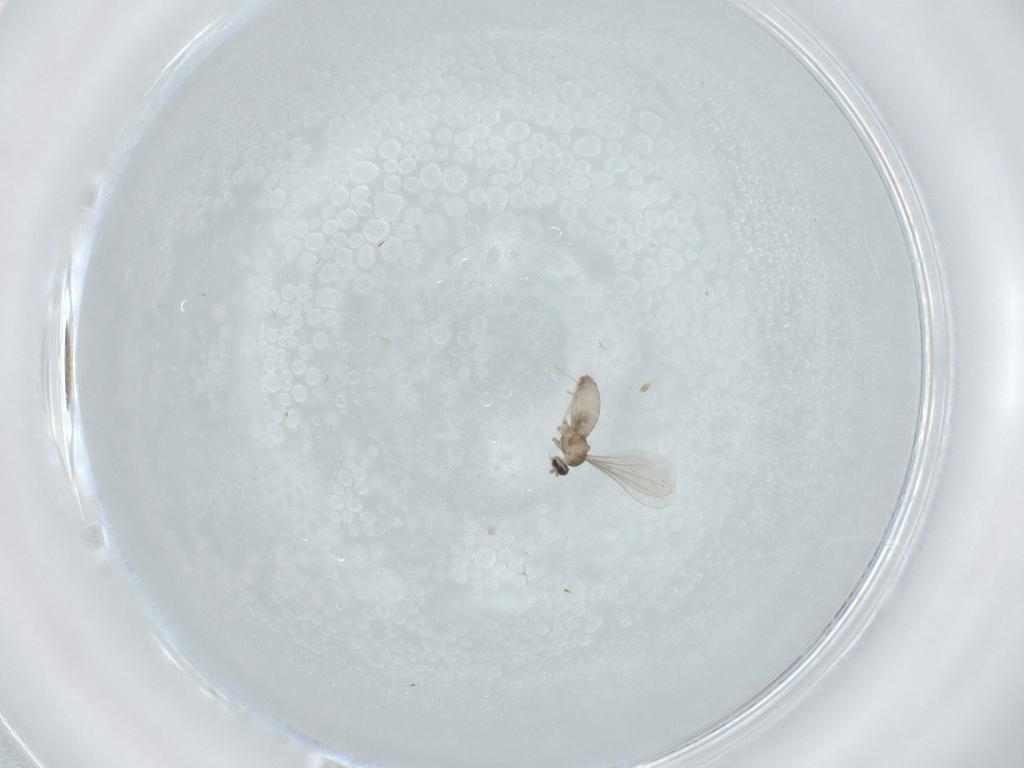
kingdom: Animalia
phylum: Arthropoda
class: Insecta
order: Diptera
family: Cecidomyiidae
